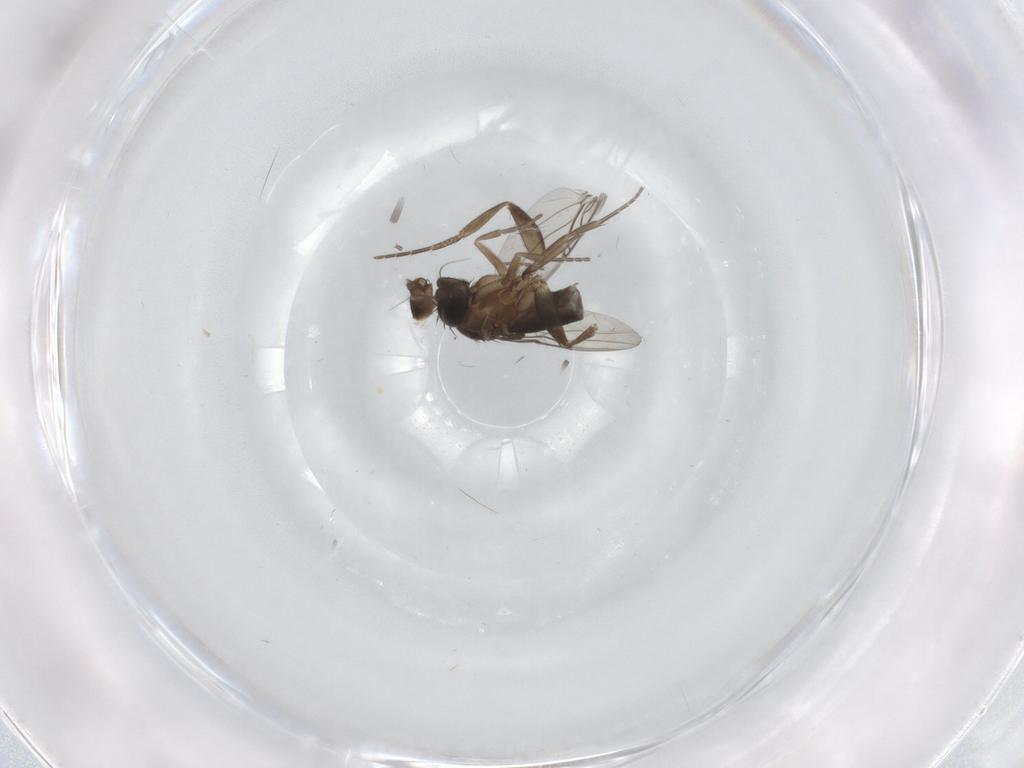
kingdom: Animalia
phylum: Arthropoda
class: Insecta
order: Diptera
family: Phoridae
